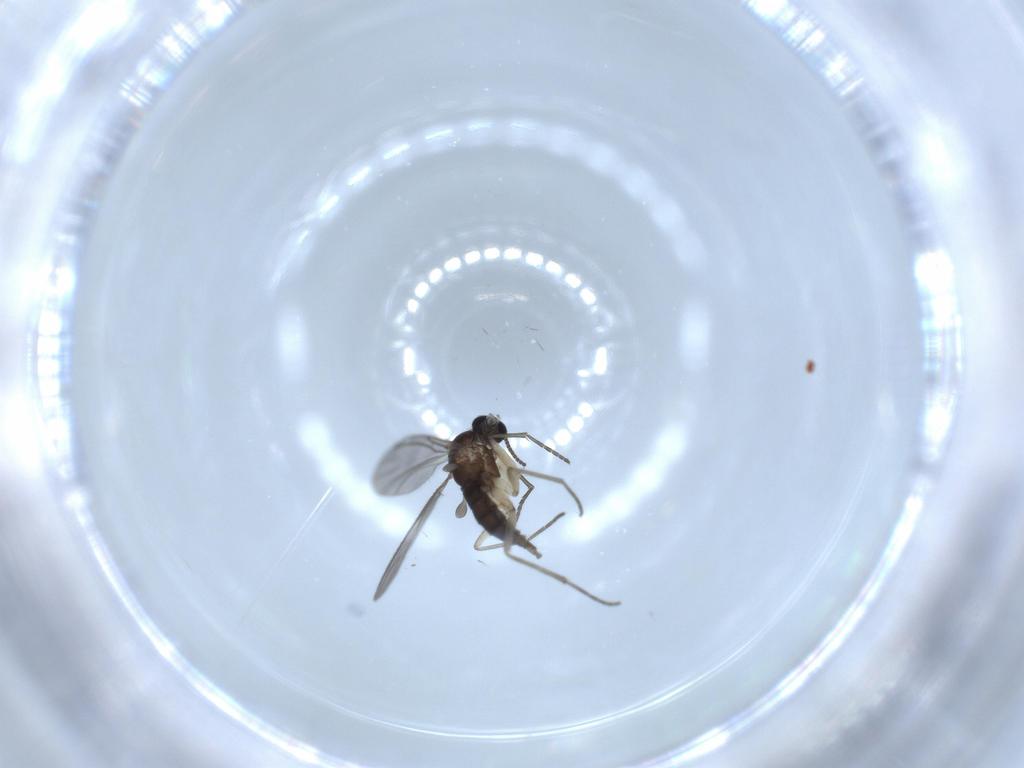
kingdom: Animalia
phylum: Arthropoda
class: Insecta
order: Diptera
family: Sciaridae
